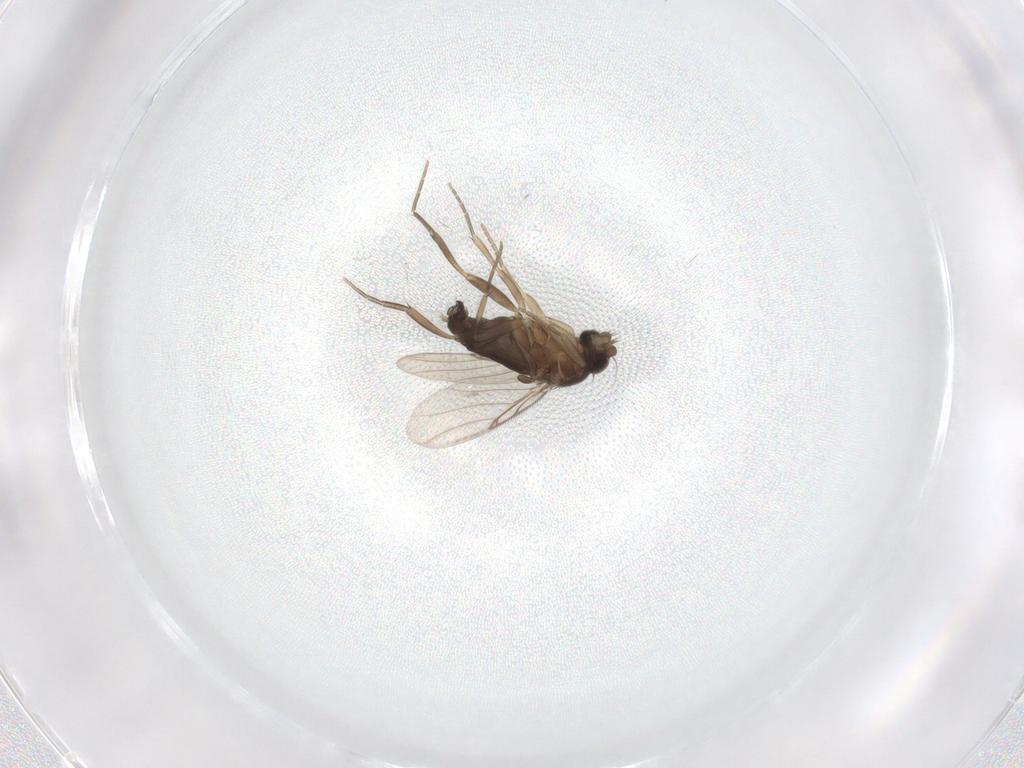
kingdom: Animalia
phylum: Arthropoda
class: Insecta
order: Diptera
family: Phoridae
